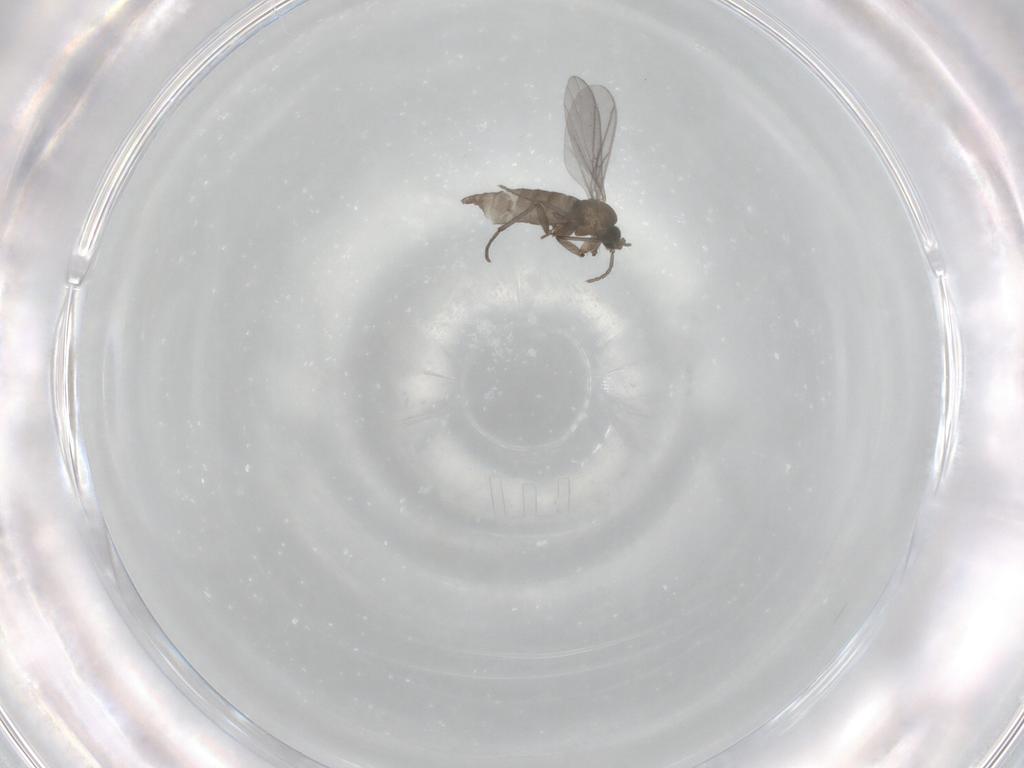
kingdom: Animalia
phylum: Arthropoda
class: Insecta
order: Diptera
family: Sciaridae
